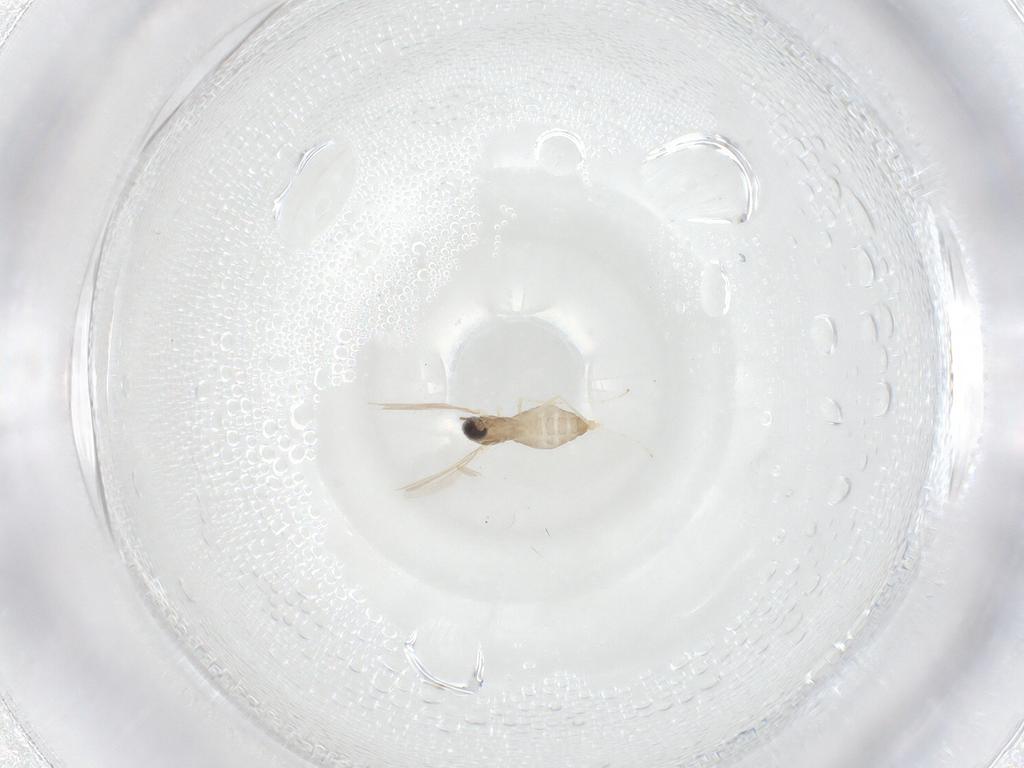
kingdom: Animalia
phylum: Arthropoda
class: Insecta
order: Diptera
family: Cecidomyiidae
